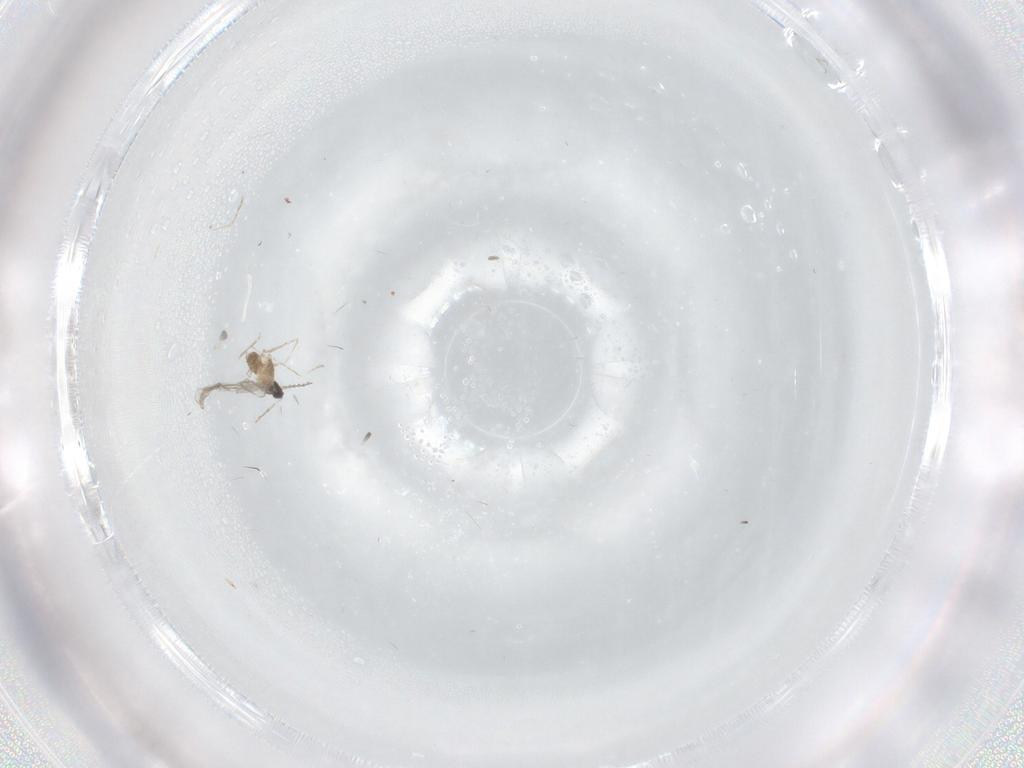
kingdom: Animalia
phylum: Arthropoda
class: Insecta
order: Diptera
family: Cecidomyiidae
